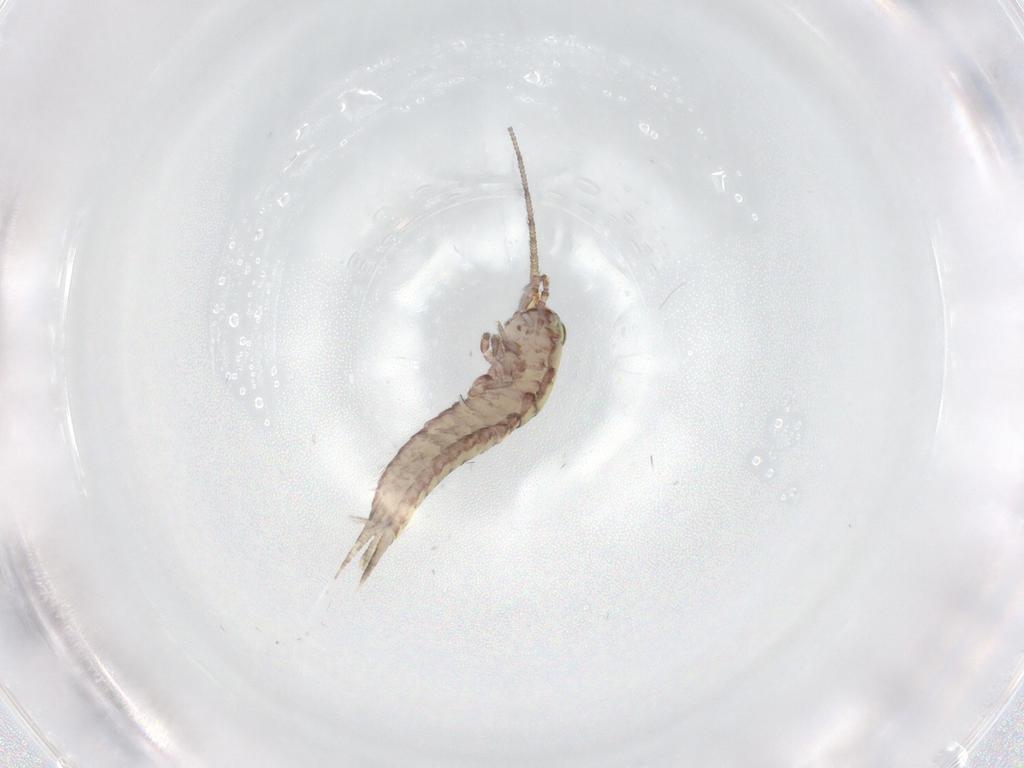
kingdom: Animalia
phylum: Arthropoda
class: Insecta
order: Archaeognatha
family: Machilidae
